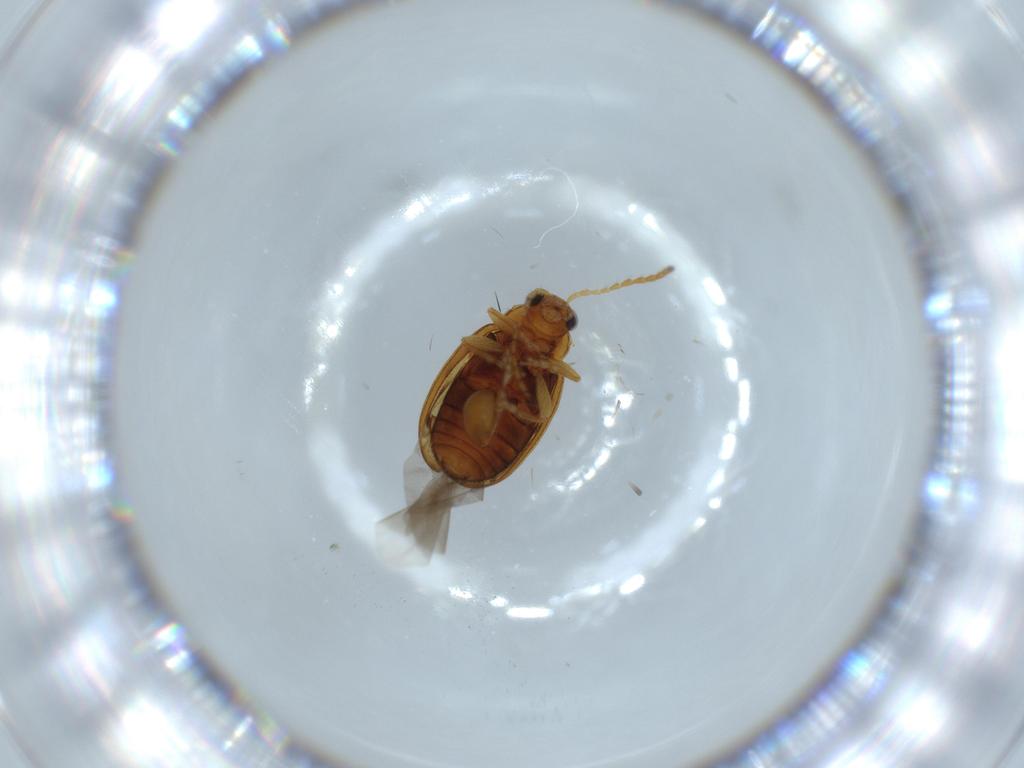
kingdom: Animalia
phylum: Arthropoda
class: Insecta
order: Coleoptera
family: Chrysomelidae
